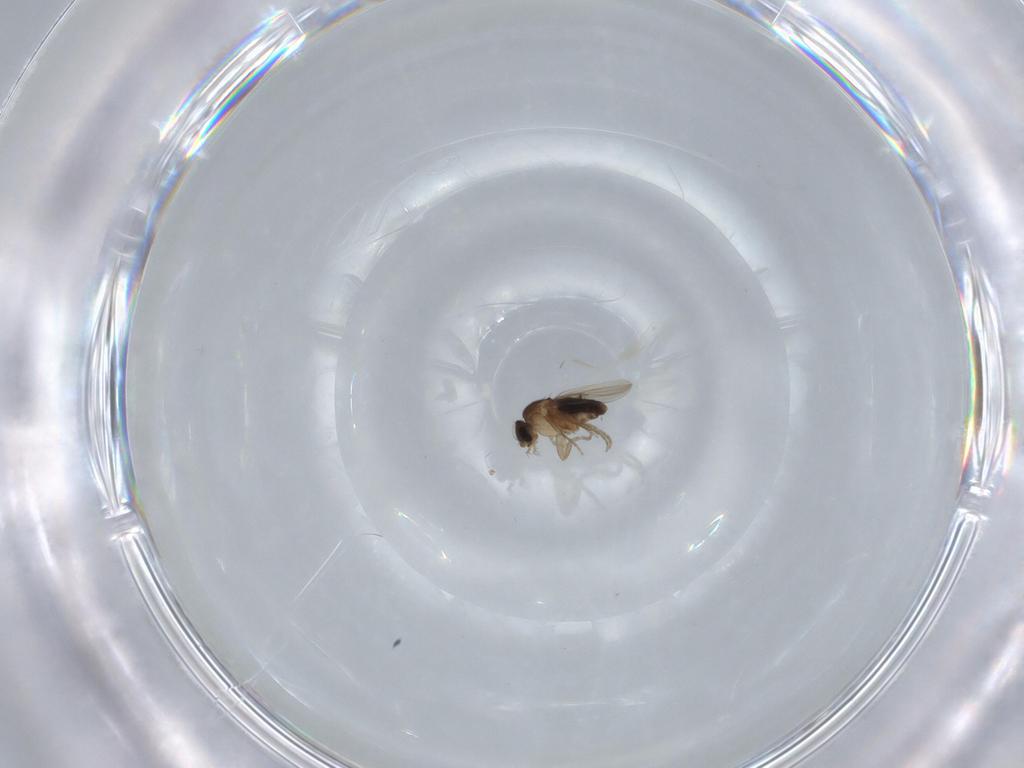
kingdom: Animalia
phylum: Arthropoda
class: Insecta
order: Diptera
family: Phoridae
